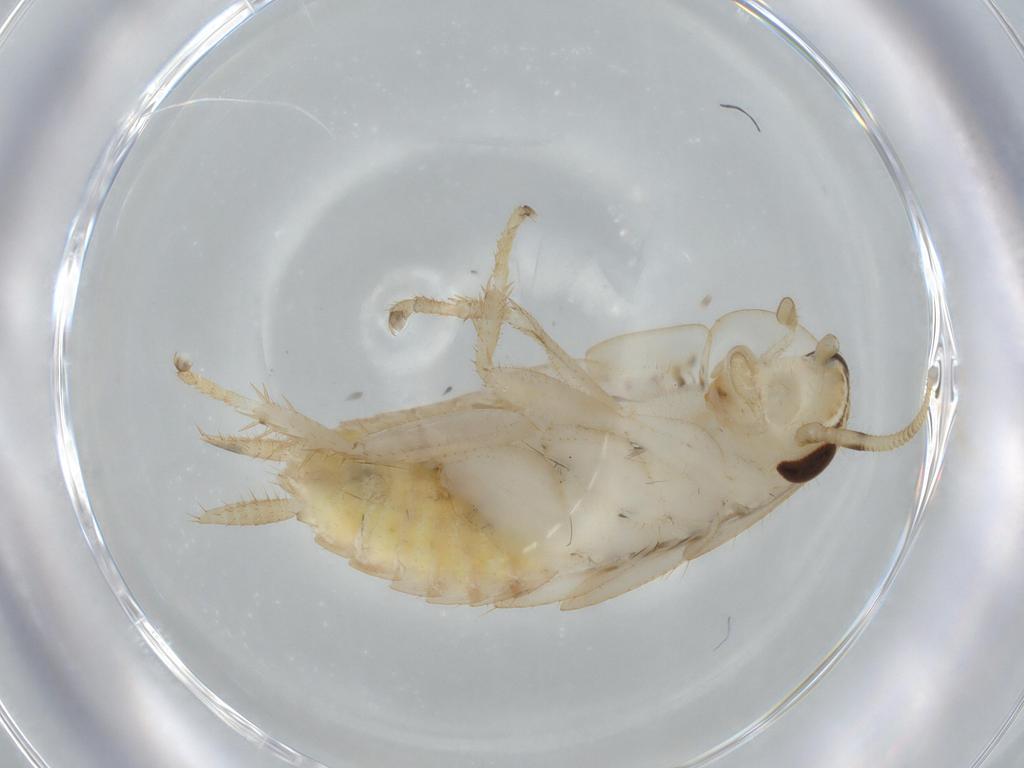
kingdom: Animalia
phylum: Arthropoda
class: Insecta
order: Blattodea
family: Ectobiidae
